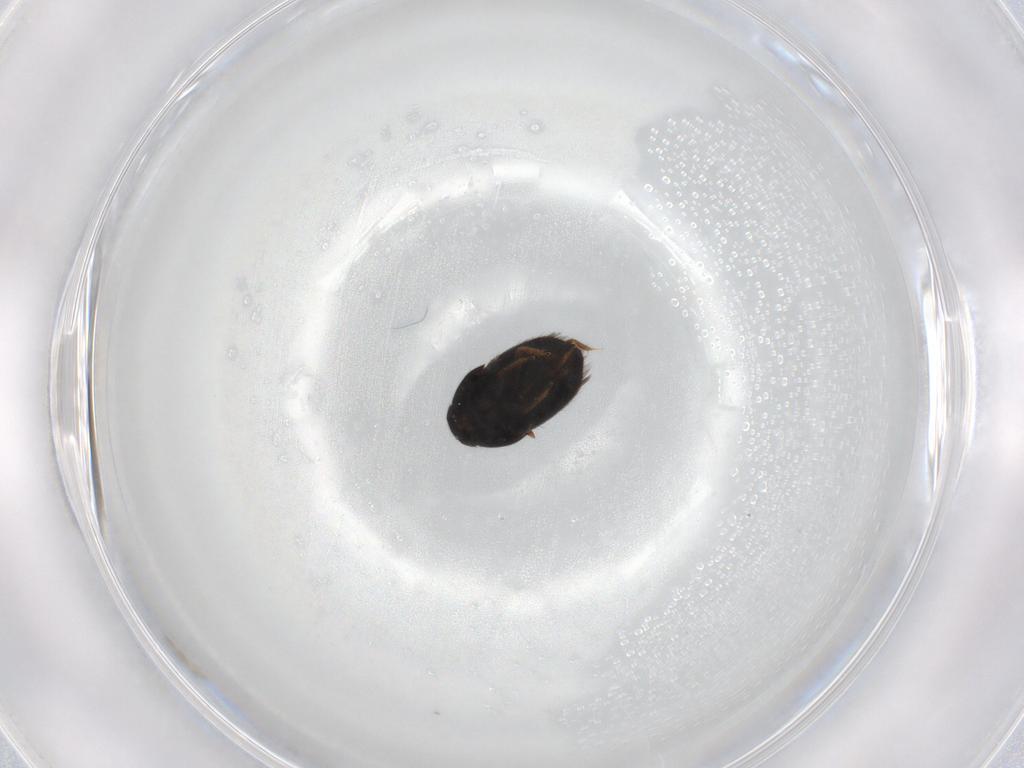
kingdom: Animalia
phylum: Arthropoda
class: Insecta
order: Coleoptera
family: Ptiliidae
